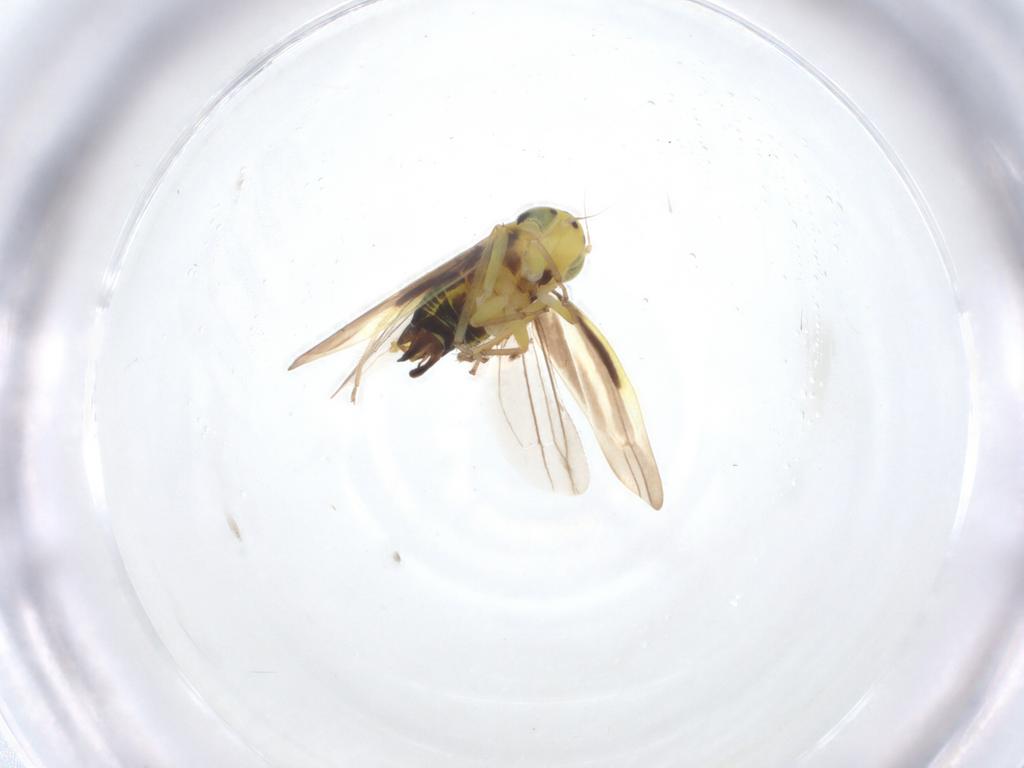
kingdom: Animalia
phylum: Arthropoda
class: Insecta
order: Hemiptera
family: Cicadellidae
